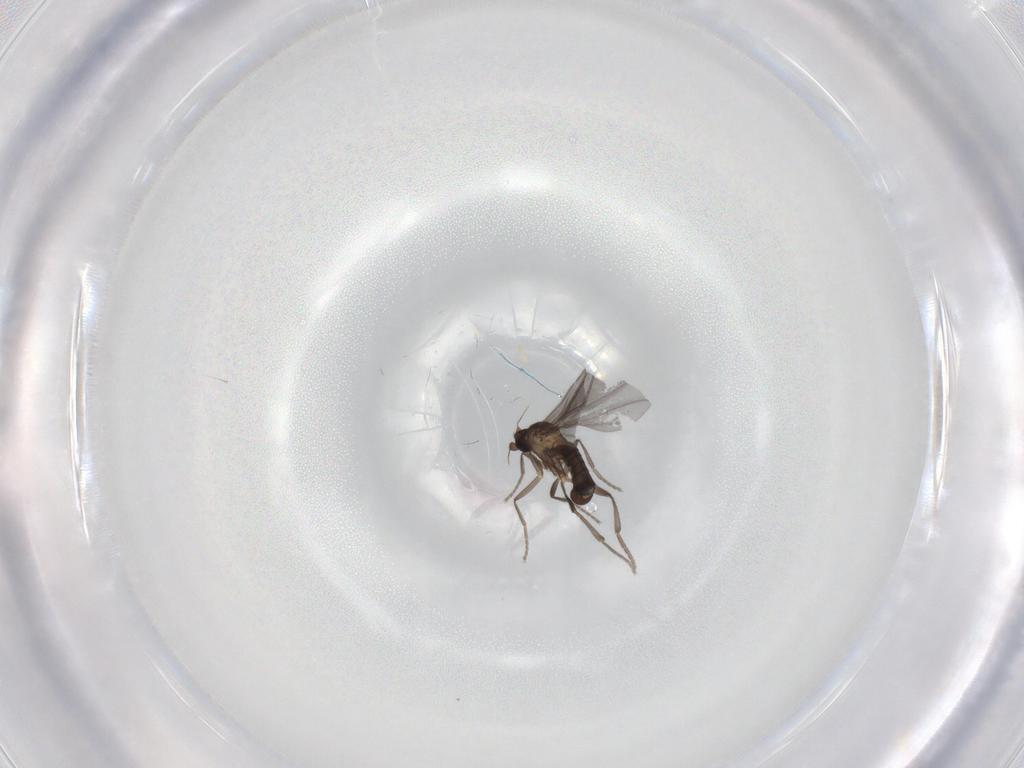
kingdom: Animalia
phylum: Arthropoda
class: Insecta
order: Diptera
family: Phoridae
